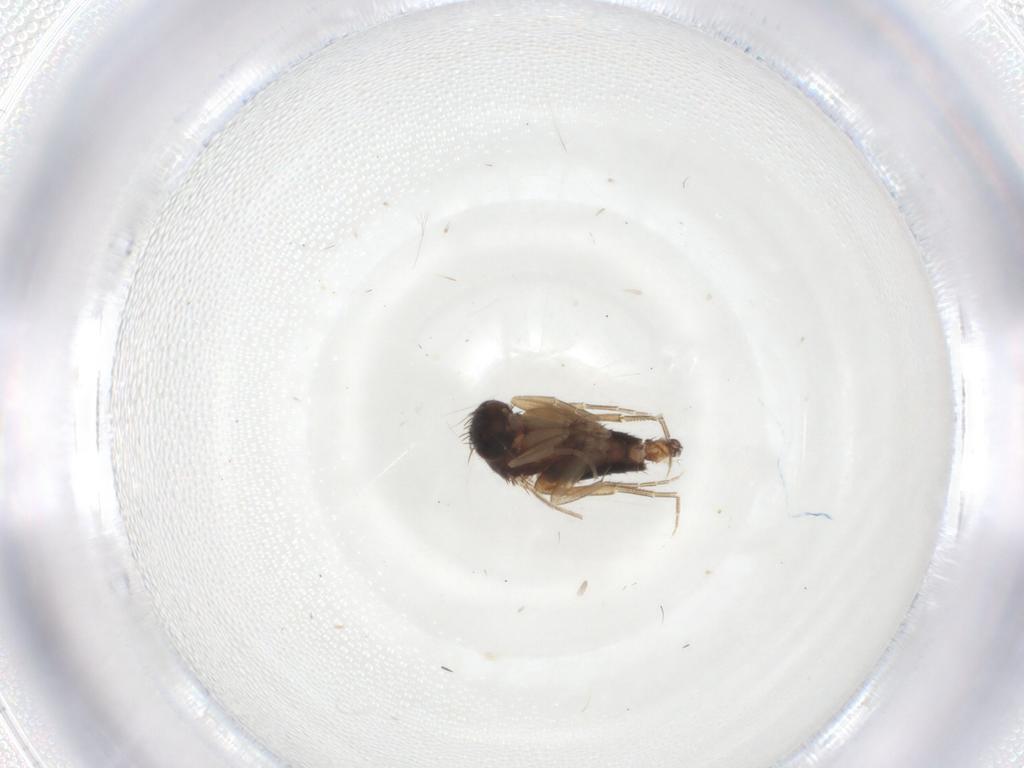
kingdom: Animalia
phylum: Arthropoda
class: Insecta
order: Diptera
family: Phoridae
